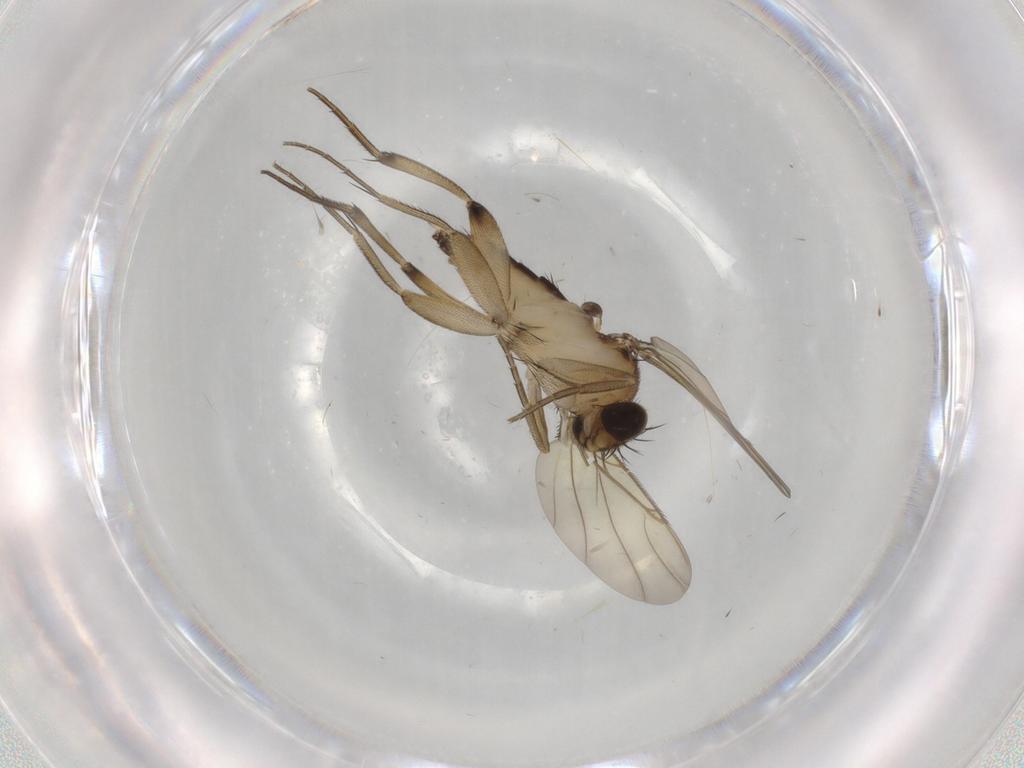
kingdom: Animalia
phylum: Arthropoda
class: Insecta
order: Diptera
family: Phoridae
